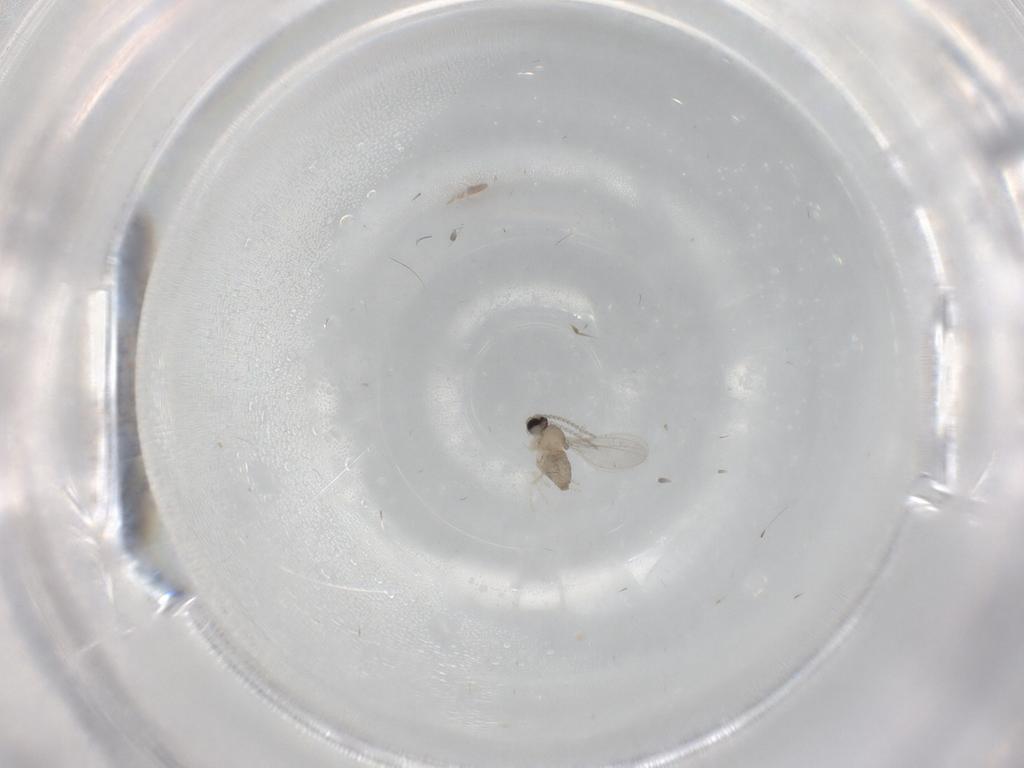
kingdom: Animalia
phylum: Arthropoda
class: Insecta
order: Diptera
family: Cecidomyiidae
